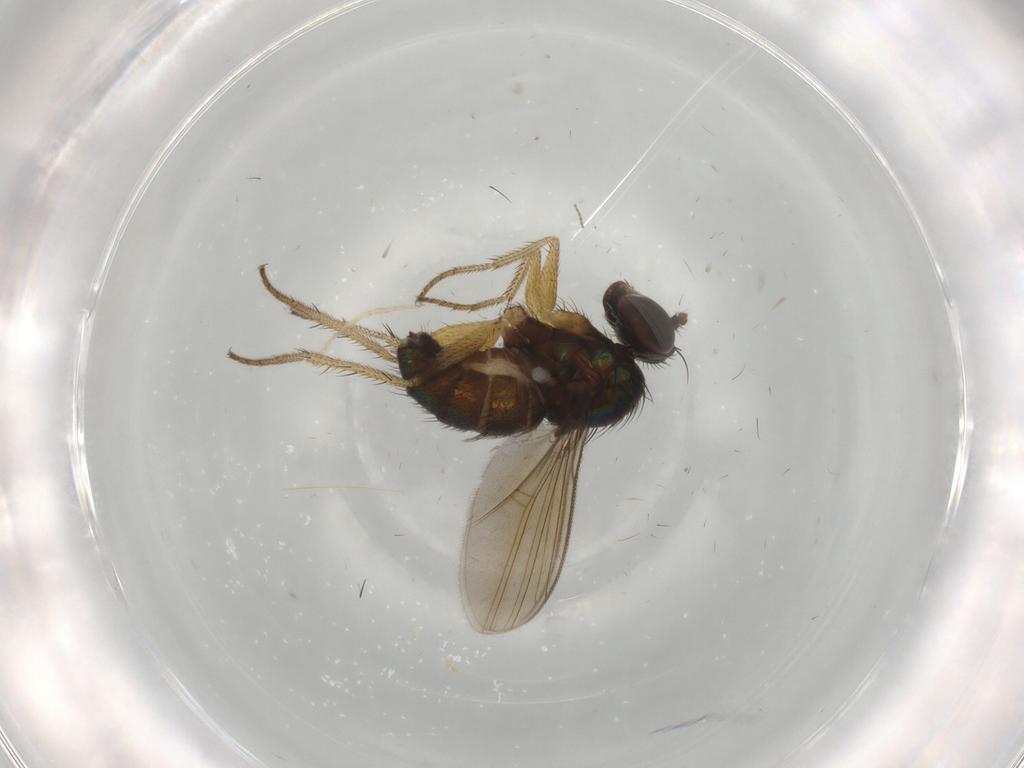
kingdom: Animalia
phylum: Arthropoda
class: Insecta
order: Diptera
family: Dolichopodidae
